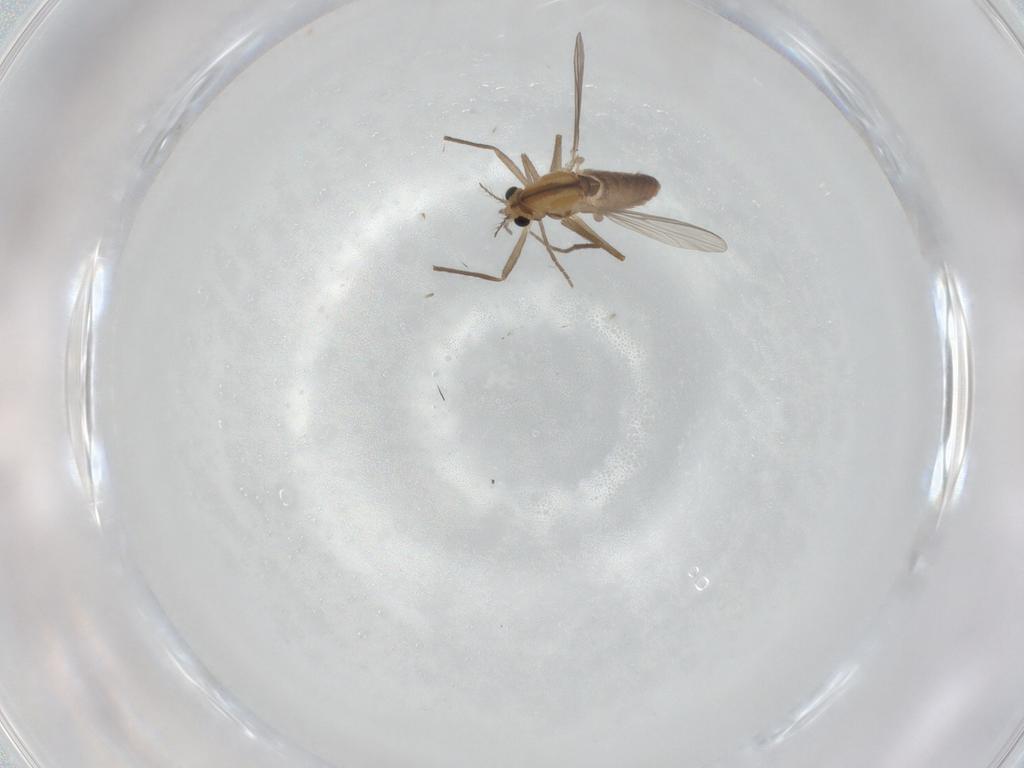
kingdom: Animalia
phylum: Arthropoda
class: Insecta
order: Diptera
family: Chironomidae
